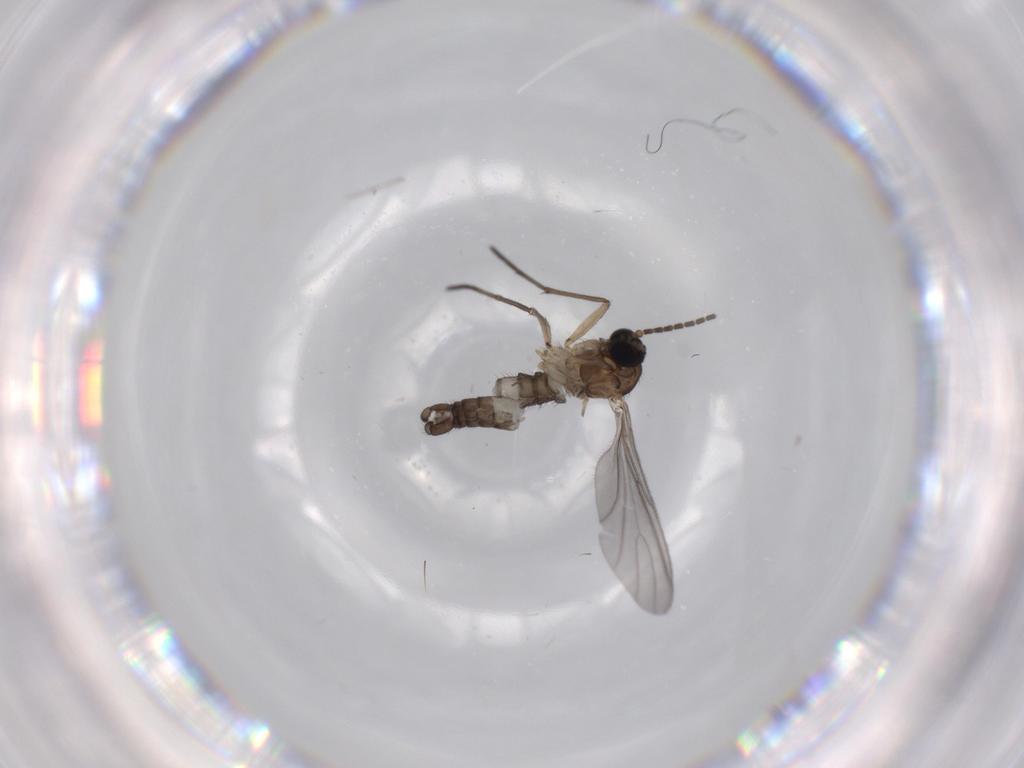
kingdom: Animalia
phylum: Arthropoda
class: Insecta
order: Diptera
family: Sciaridae
